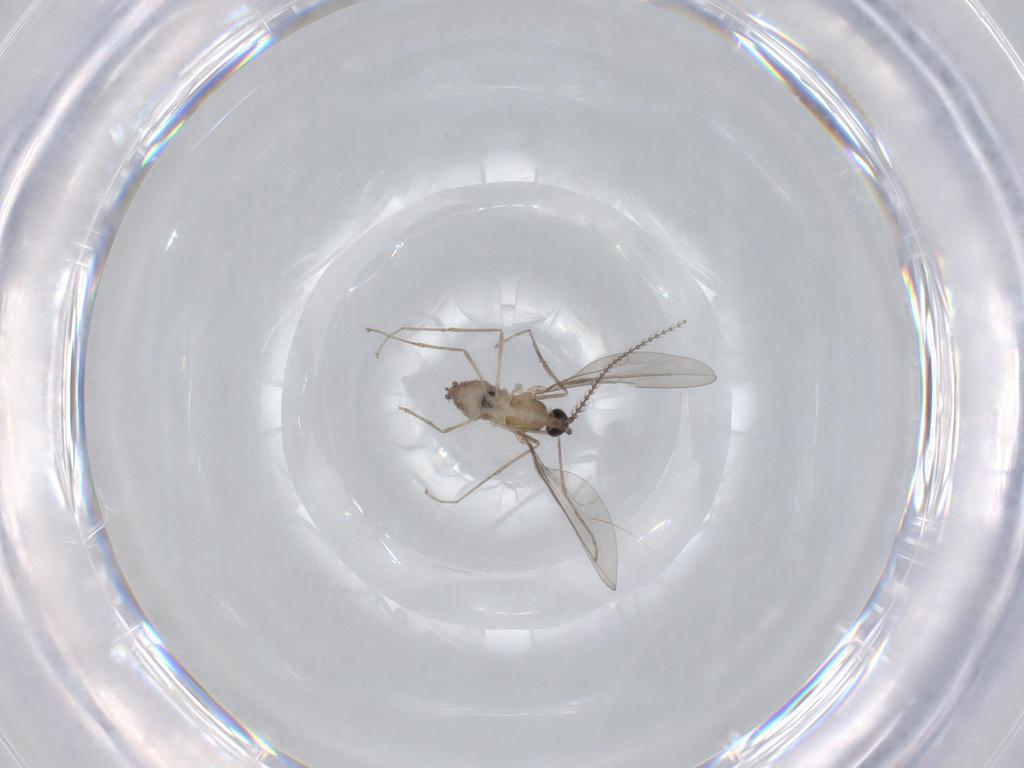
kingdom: Animalia
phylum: Arthropoda
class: Insecta
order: Diptera
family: Cecidomyiidae
